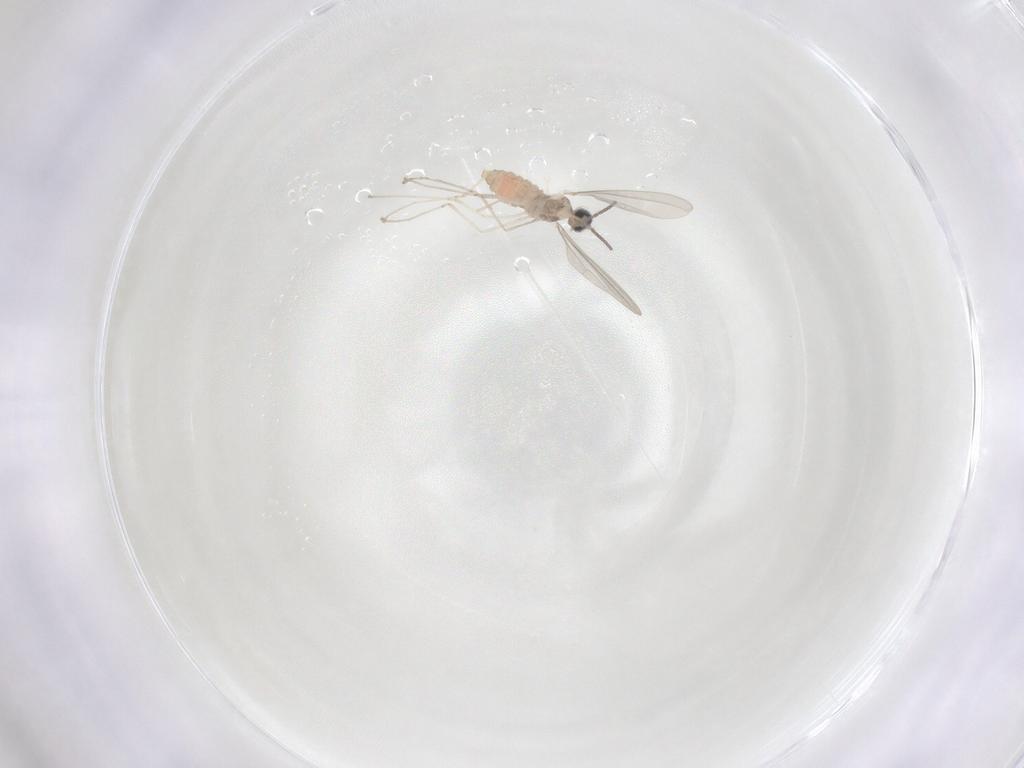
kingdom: Animalia
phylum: Arthropoda
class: Insecta
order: Diptera
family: Cecidomyiidae
